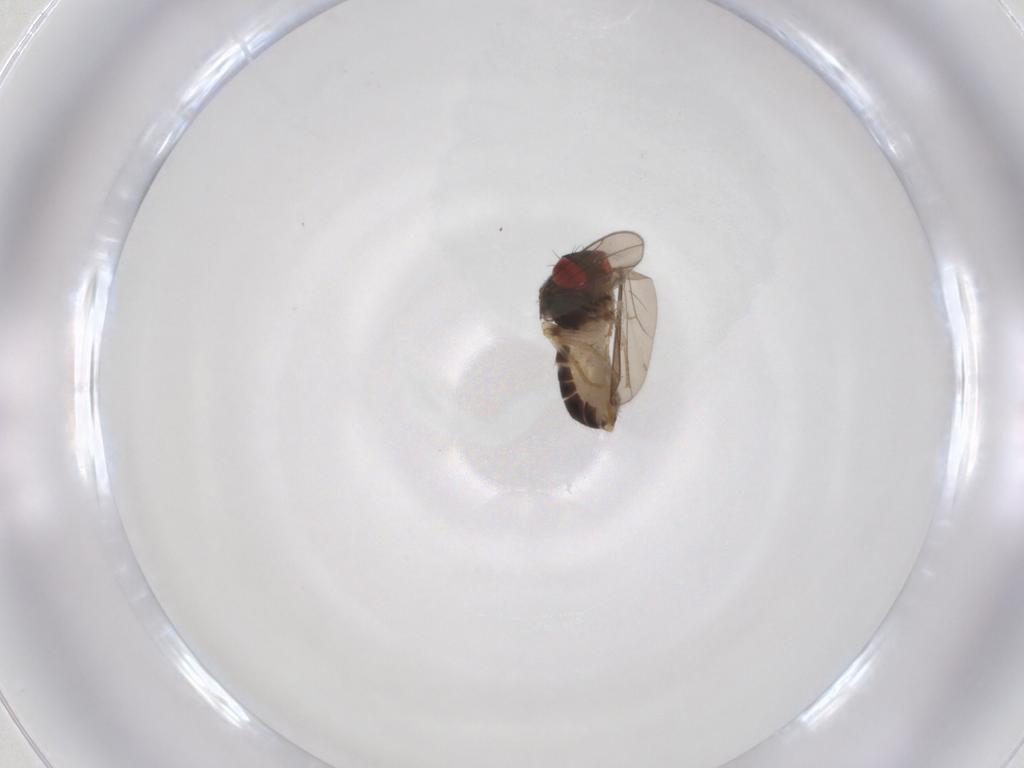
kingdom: Animalia
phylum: Arthropoda
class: Insecta
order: Diptera
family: Drosophilidae
